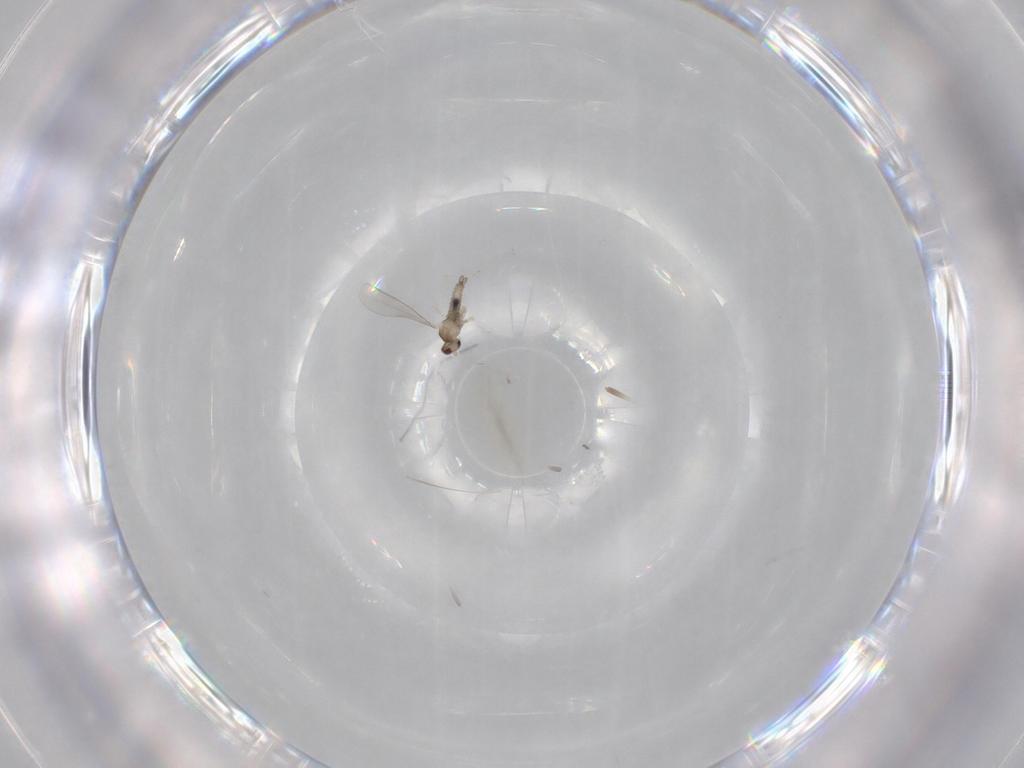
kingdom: Animalia
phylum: Arthropoda
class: Insecta
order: Diptera
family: Cecidomyiidae
